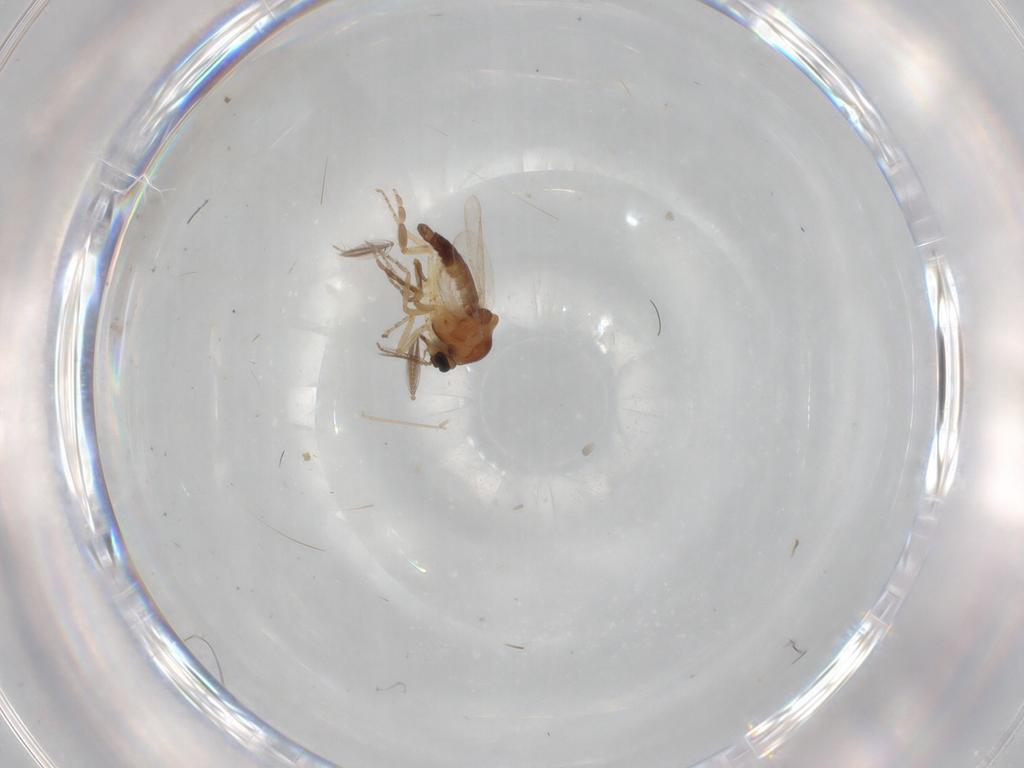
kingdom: Animalia
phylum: Arthropoda
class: Insecta
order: Diptera
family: Ceratopogonidae
